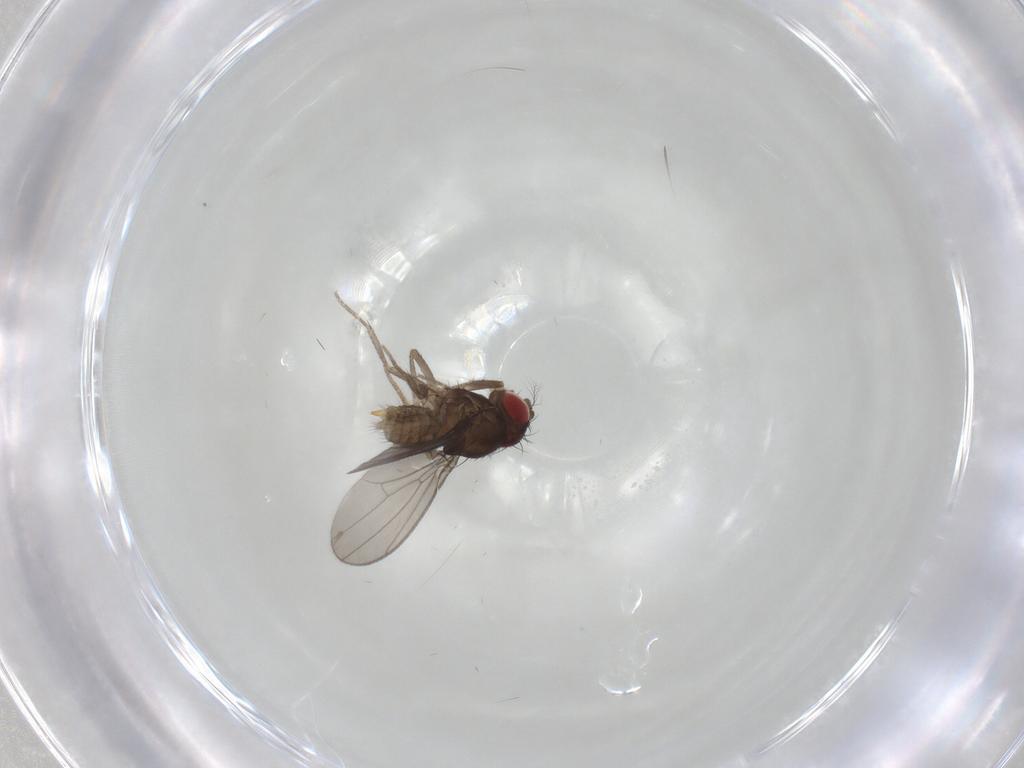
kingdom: Animalia
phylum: Arthropoda
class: Insecta
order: Diptera
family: Drosophilidae
